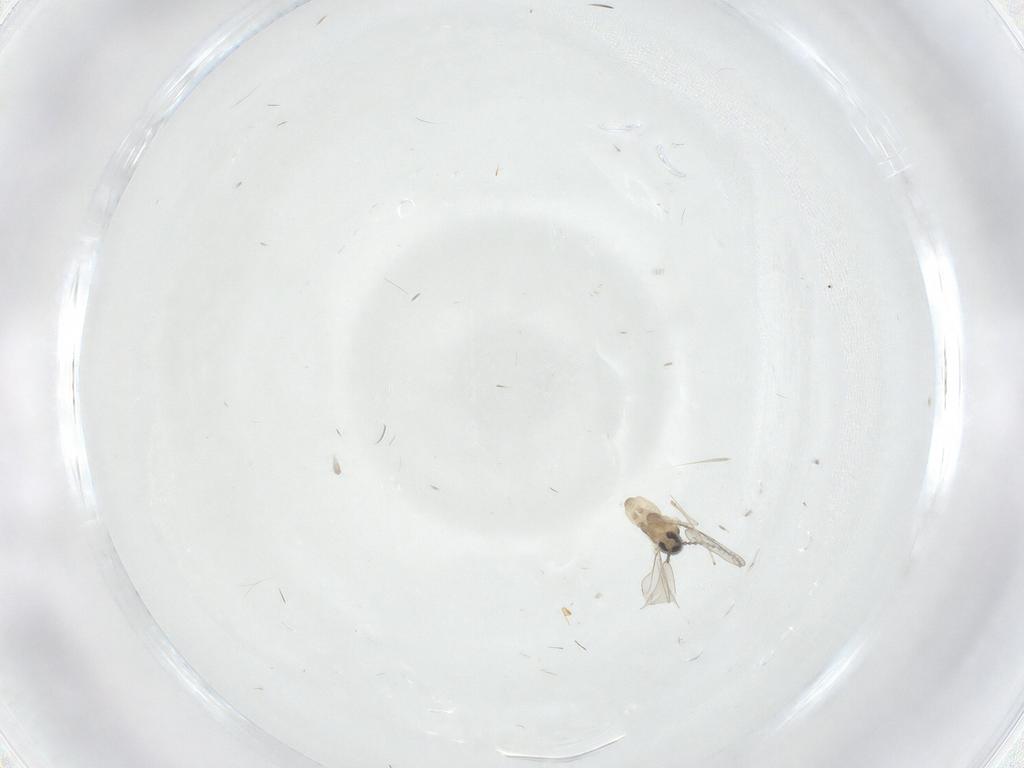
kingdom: Animalia
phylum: Arthropoda
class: Insecta
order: Diptera
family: Cecidomyiidae
